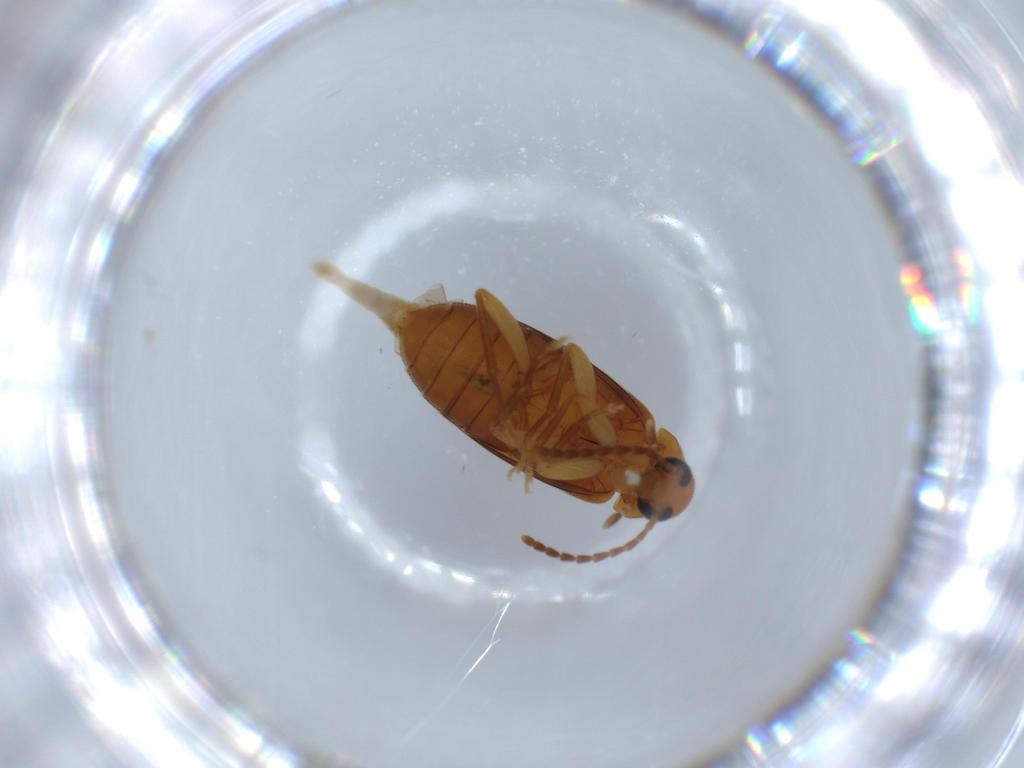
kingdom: Animalia
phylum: Arthropoda
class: Insecta
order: Coleoptera
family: Scraptiidae
